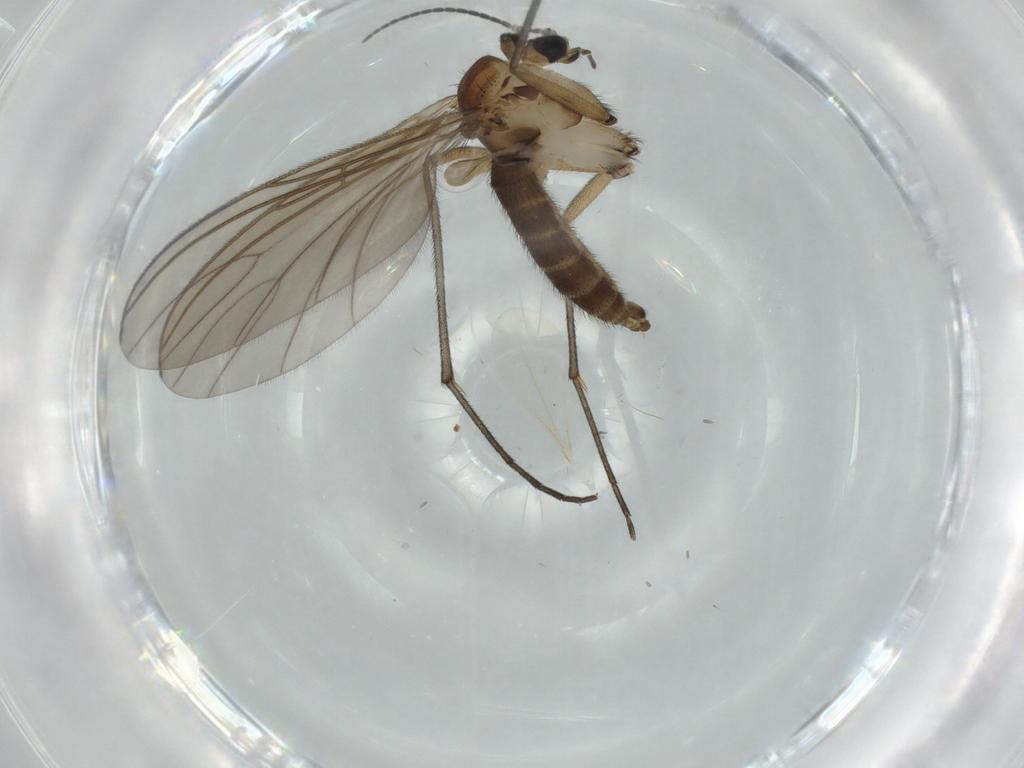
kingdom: Animalia
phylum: Arthropoda
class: Insecta
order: Diptera
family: Sciaridae
